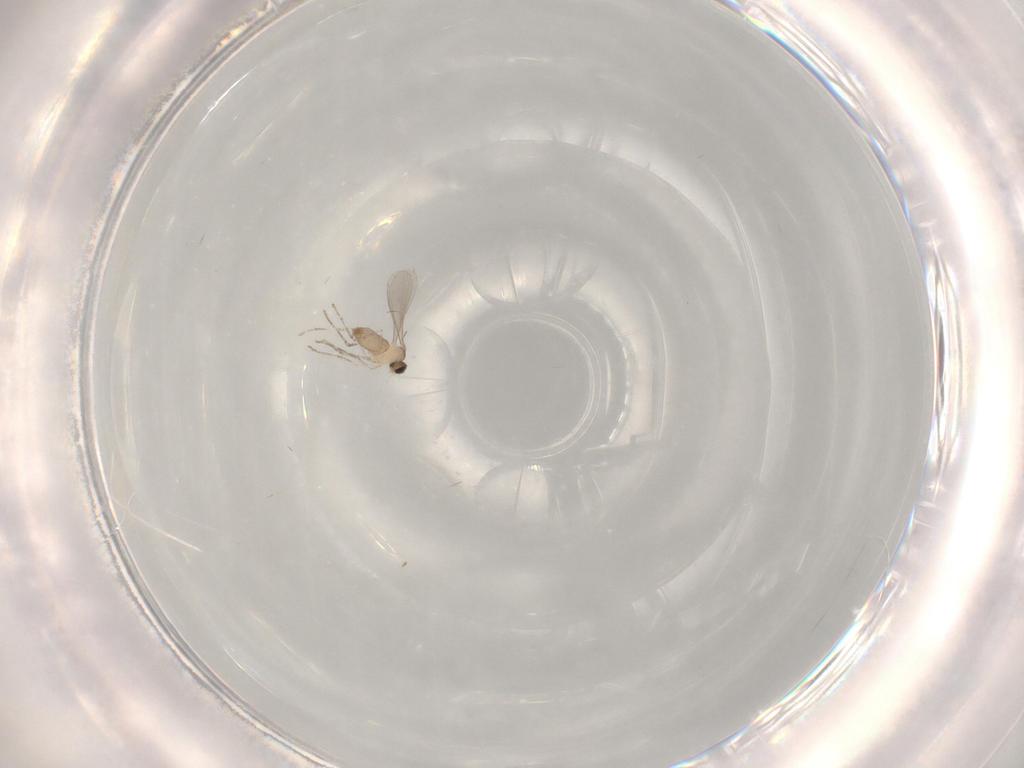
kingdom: Animalia
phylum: Arthropoda
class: Insecta
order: Diptera
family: Cecidomyiidae
